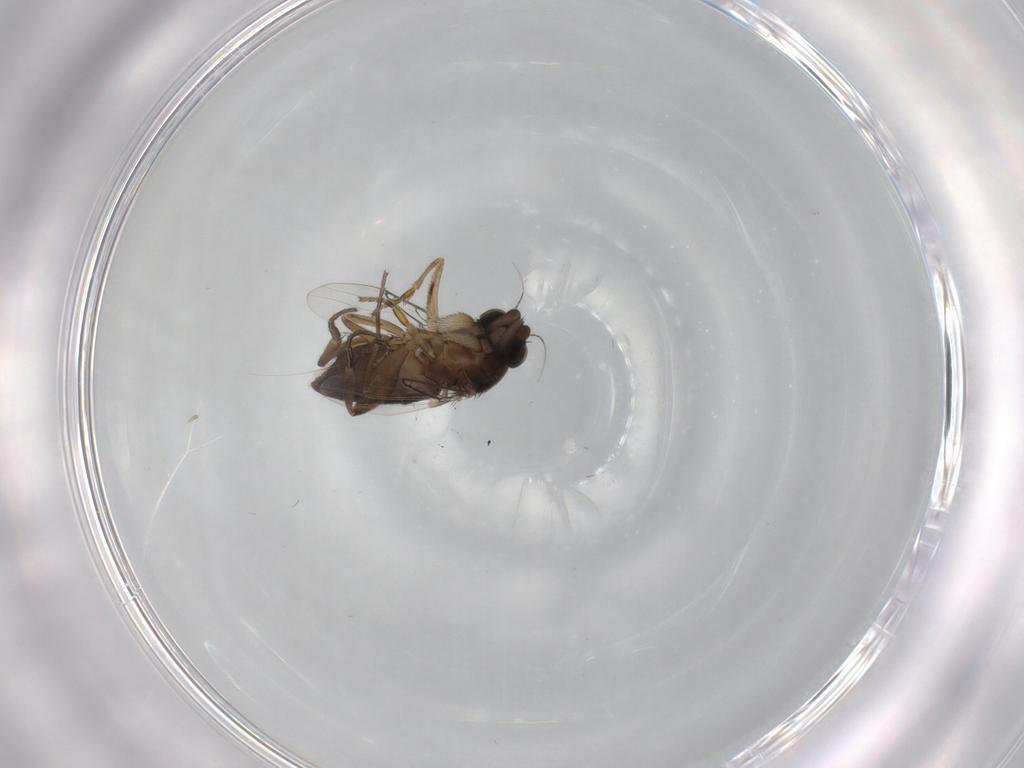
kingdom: Animalia
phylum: Arthropoda
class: Insecta
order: Diptera
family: Phoridae
